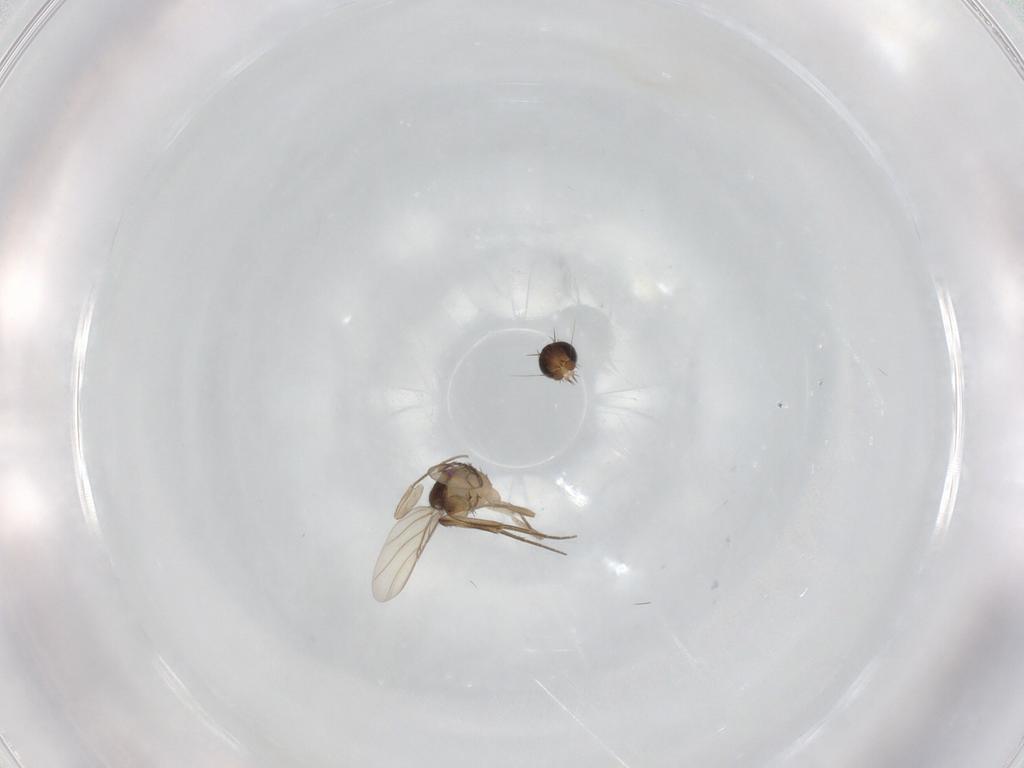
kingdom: Animalia
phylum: Arthropoda
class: Insecta
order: Diptera
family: Phoridae
